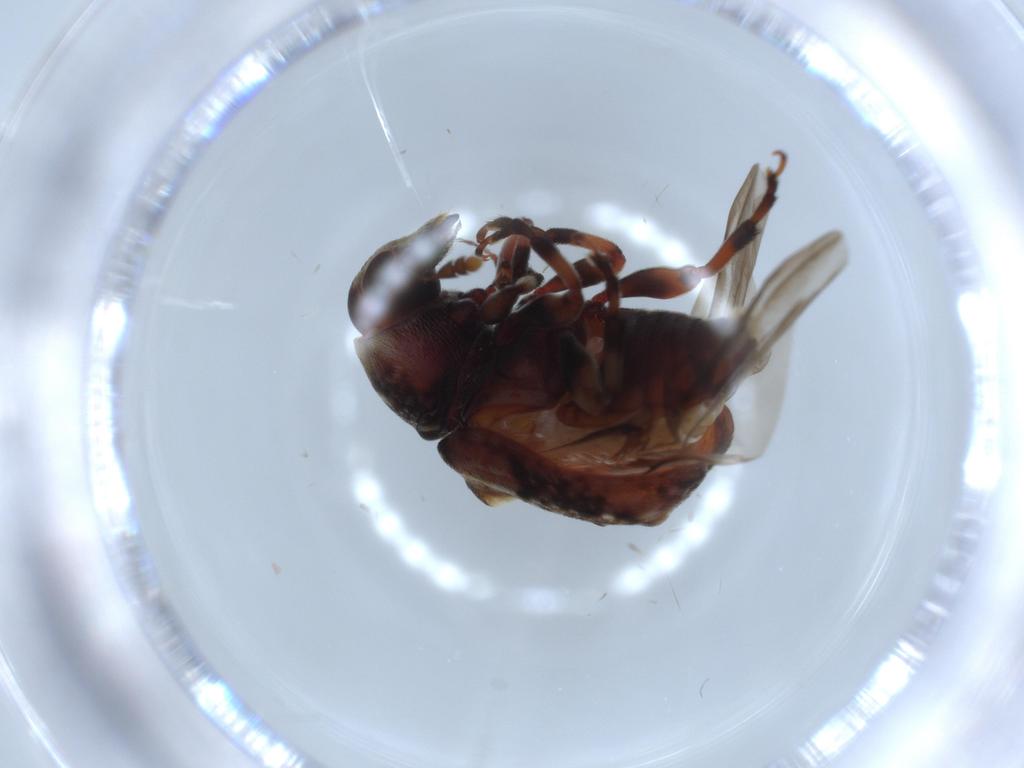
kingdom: Animalia
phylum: Arthropoda
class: Insecta
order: Coleoptera
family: Anthribidae
